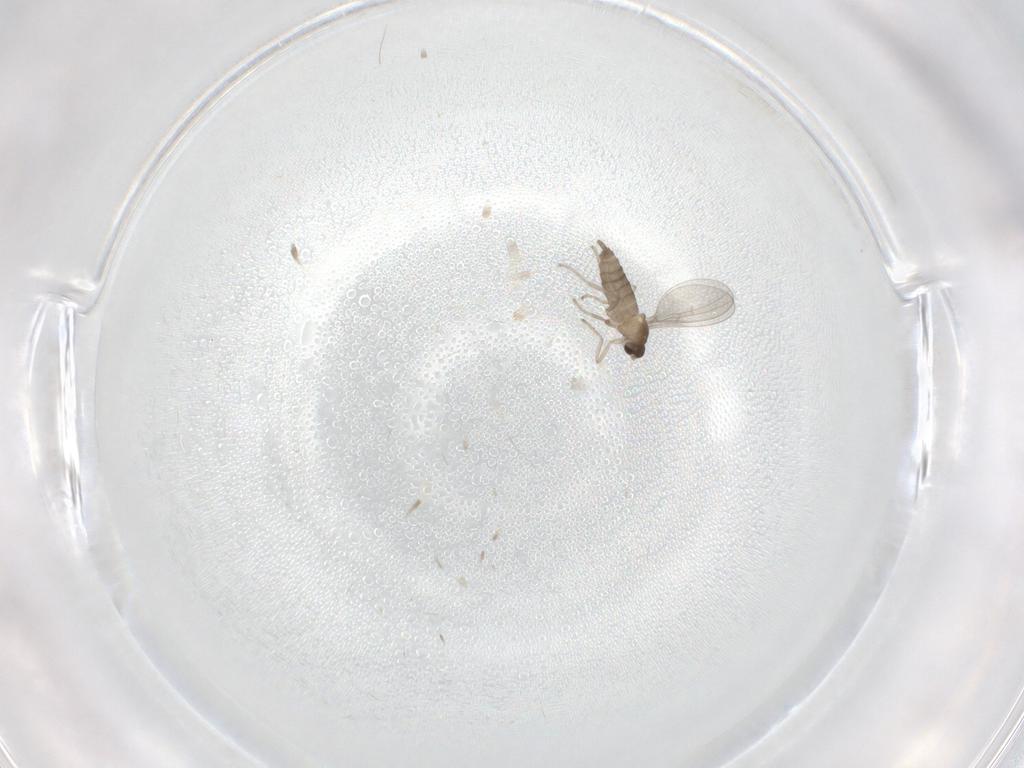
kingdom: Animalia
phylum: Arthropoda
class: Insecta
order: Diptera
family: Cecidomyiidae
